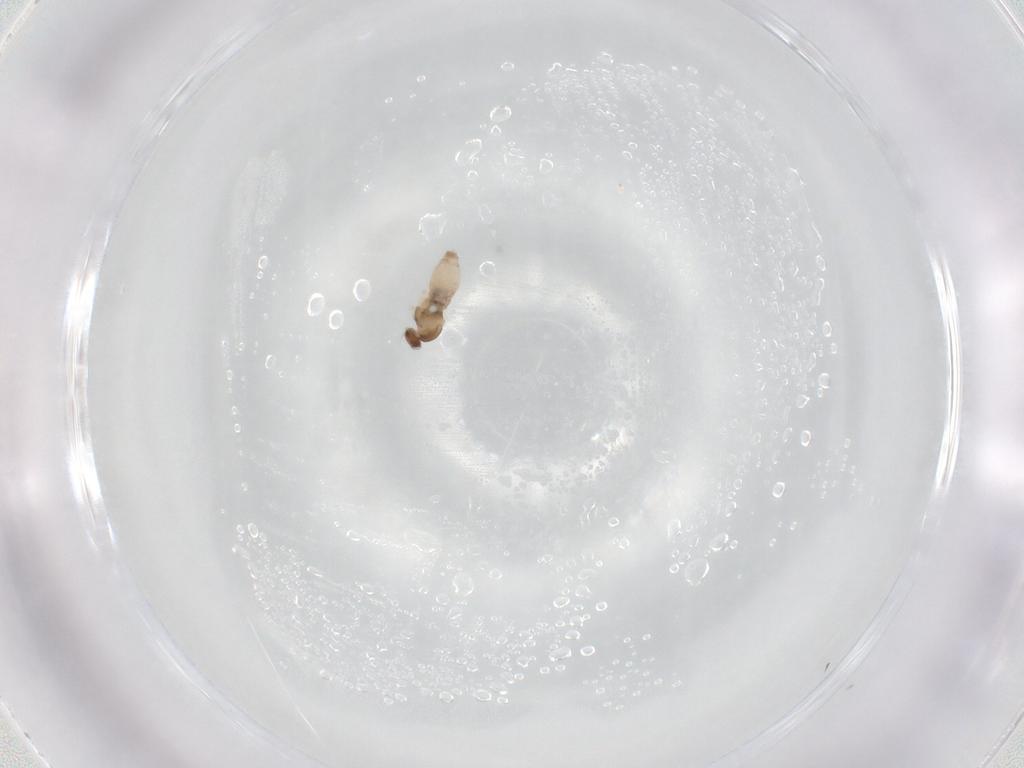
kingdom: Animalia
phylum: Arthropoda
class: Insecta
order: Diptera
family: Cecidomyiidae
